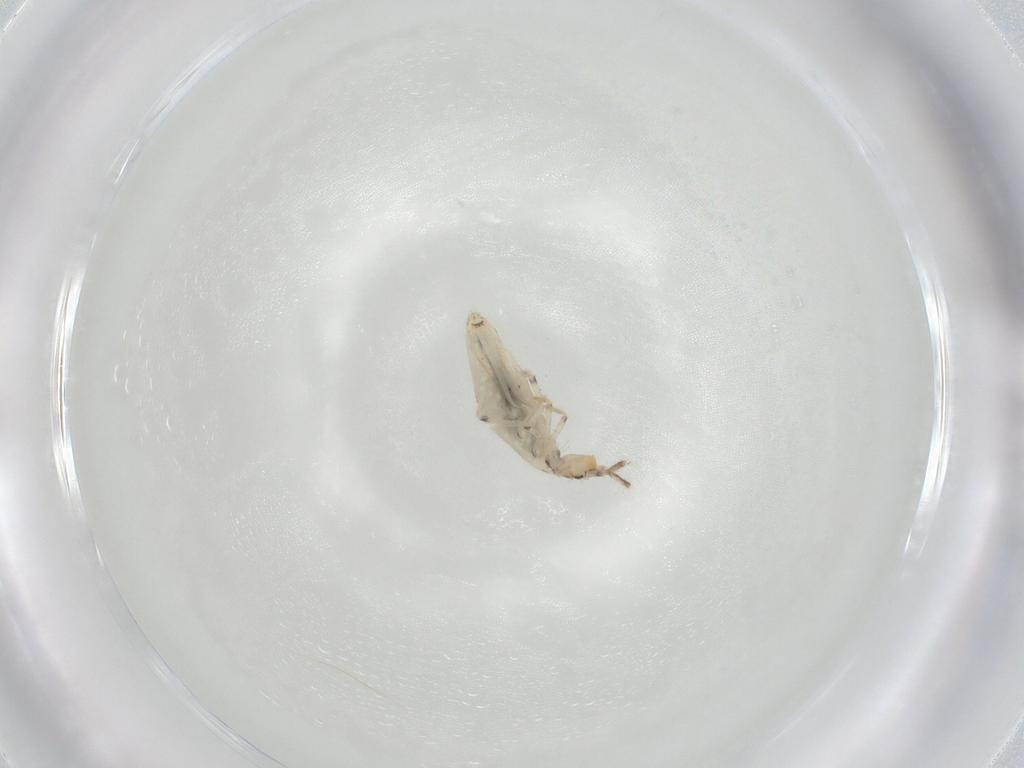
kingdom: Animalia
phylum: Arthropoda
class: Collembola
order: Entomobryomorpha
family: Entomobryidae
